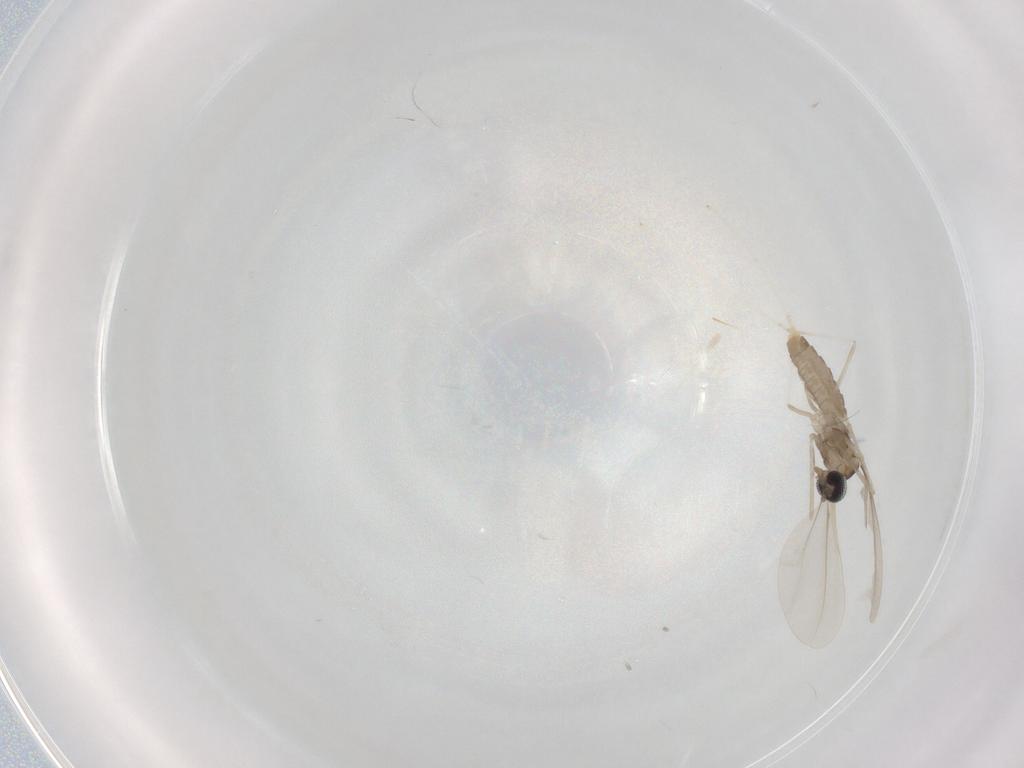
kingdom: Animalia
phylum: Arthropoda
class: Insecta
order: Diptera
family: Cecidomyiidae
